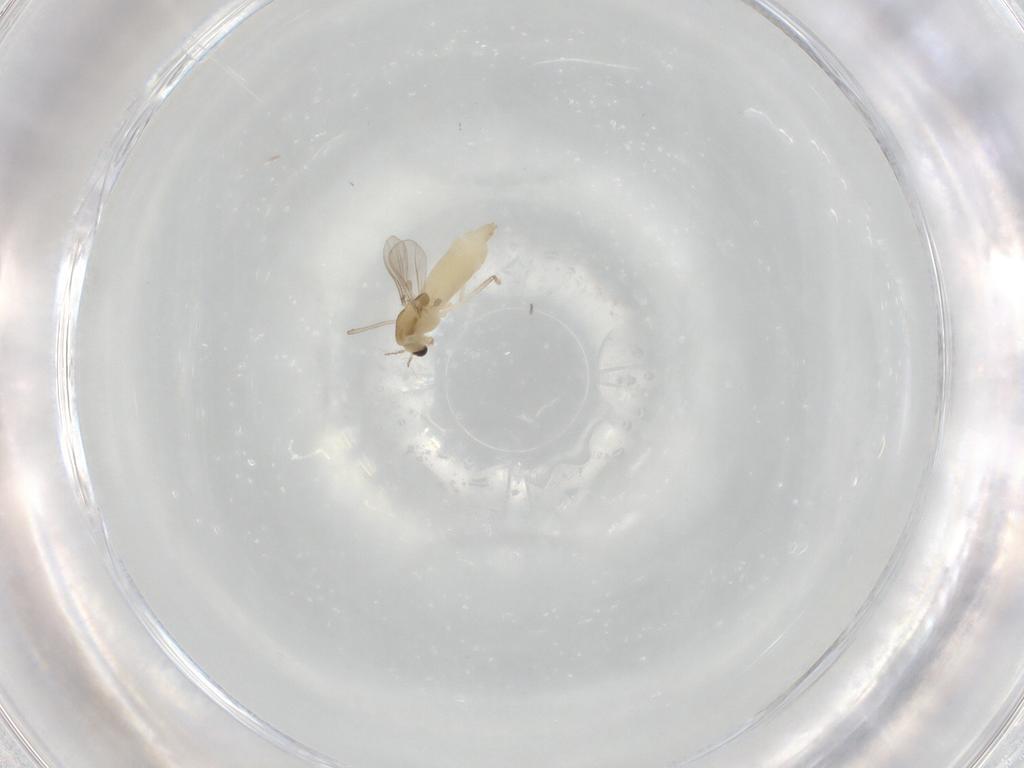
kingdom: Animalia
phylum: Arthropoda
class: Insecta
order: Diptera
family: Chironomidae
